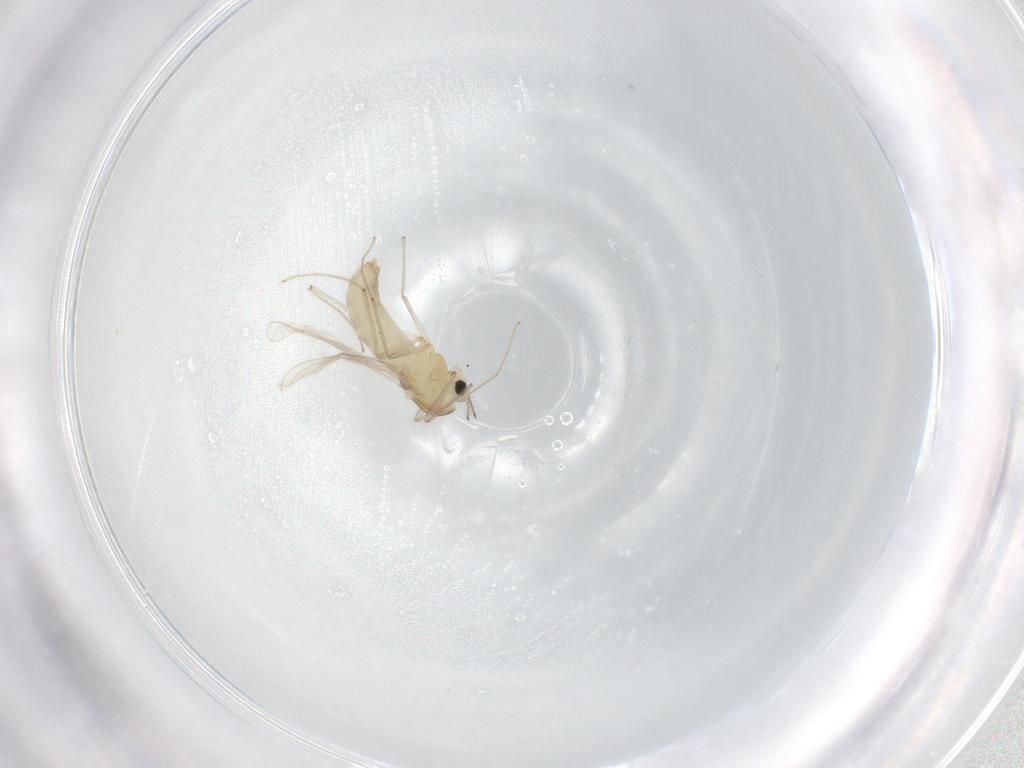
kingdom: Animalia
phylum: Arthropoda
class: Insecta
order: Diptera
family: Chironomidae
